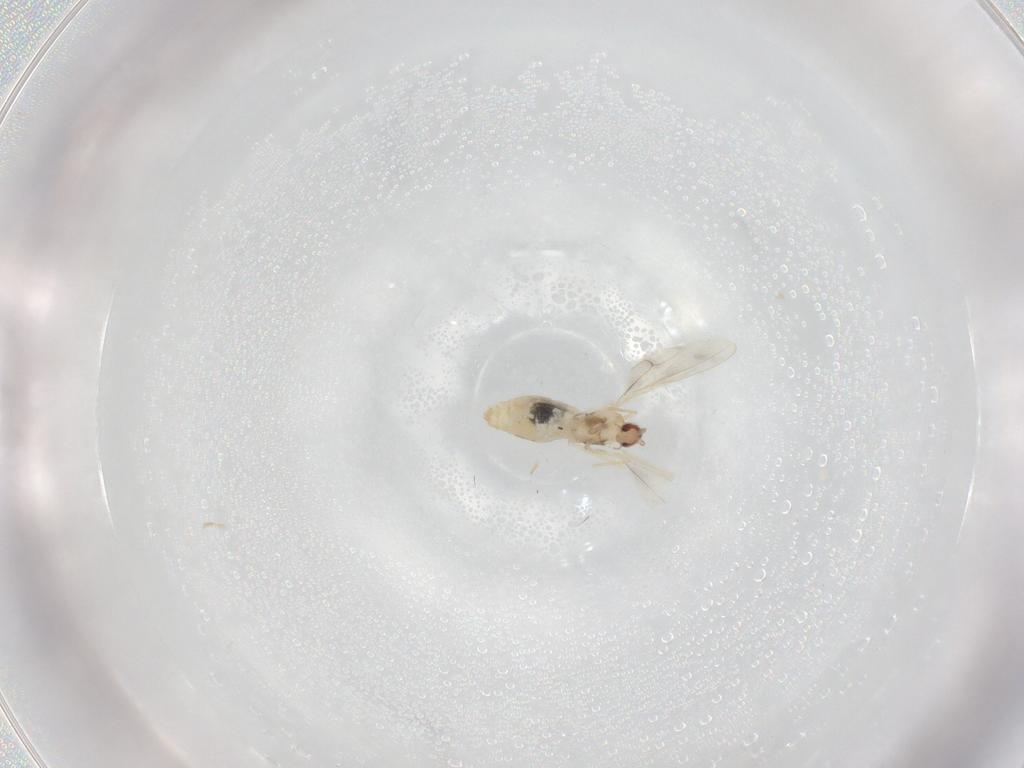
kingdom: Animalia
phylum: Arthropoda
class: Insecta
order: Diptera
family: Cecidomyiidae
